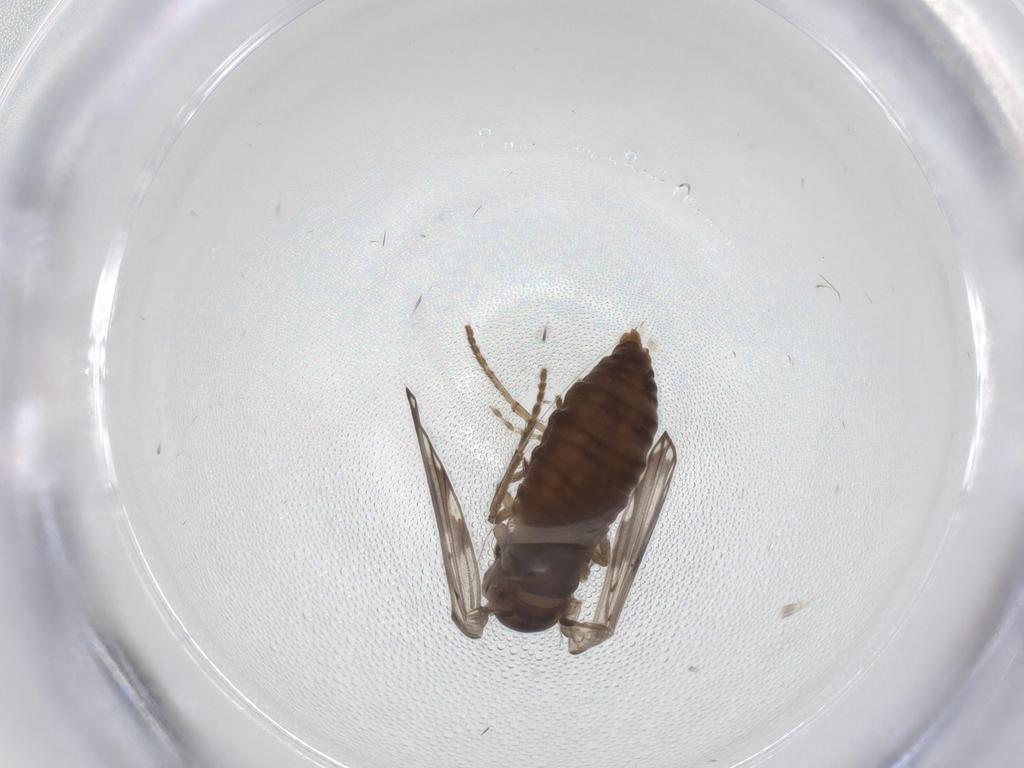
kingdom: Animalia
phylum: Arthropoda
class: Insecta
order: Diptera
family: Psychodidae
